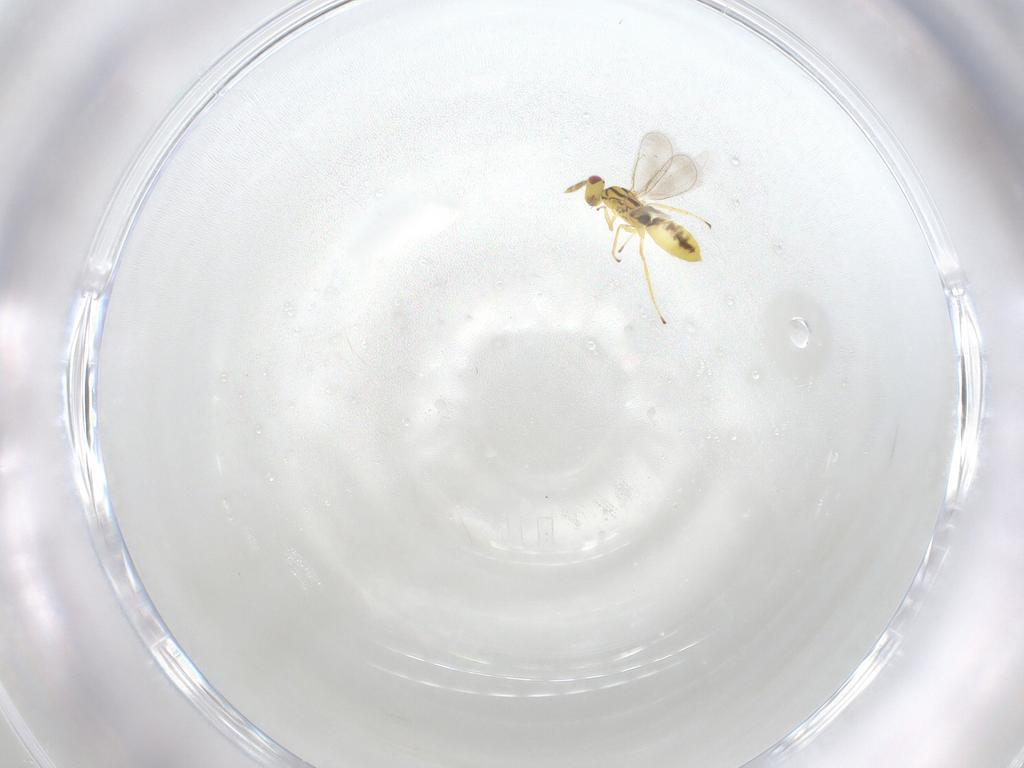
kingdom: Animalia
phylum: Arthropoda
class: Insecta
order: Hymenoptera
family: Eulophidae
